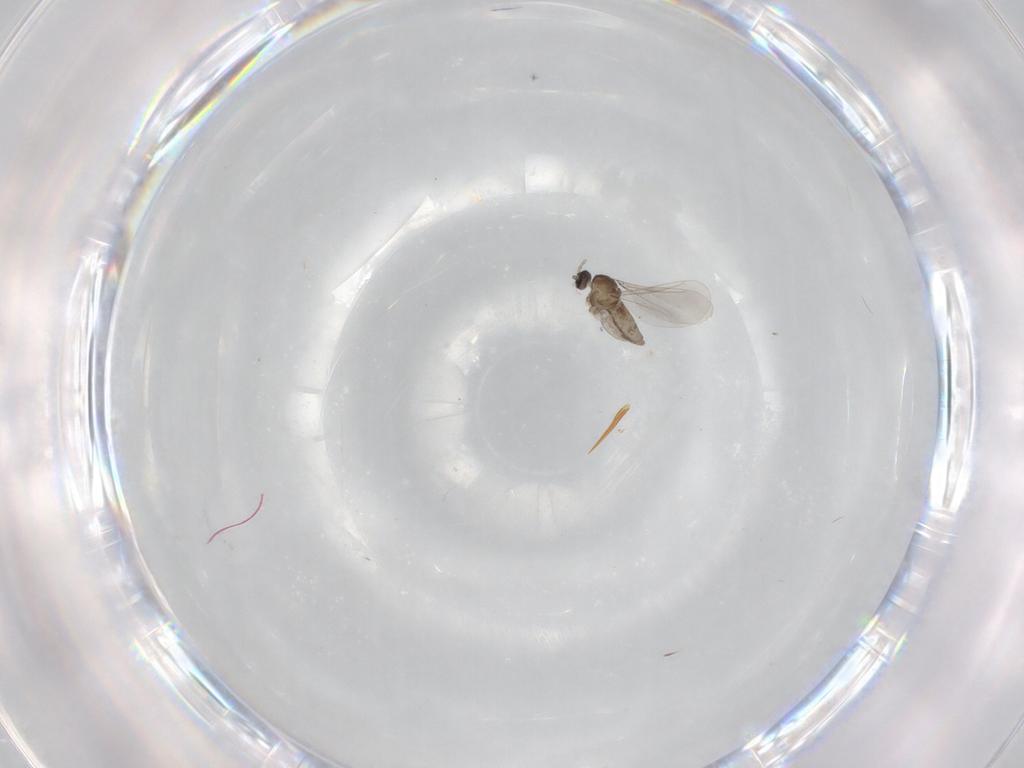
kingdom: Animalia
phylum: Arthropoda
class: Insecta
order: Diptera
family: Cecidomyiidae
